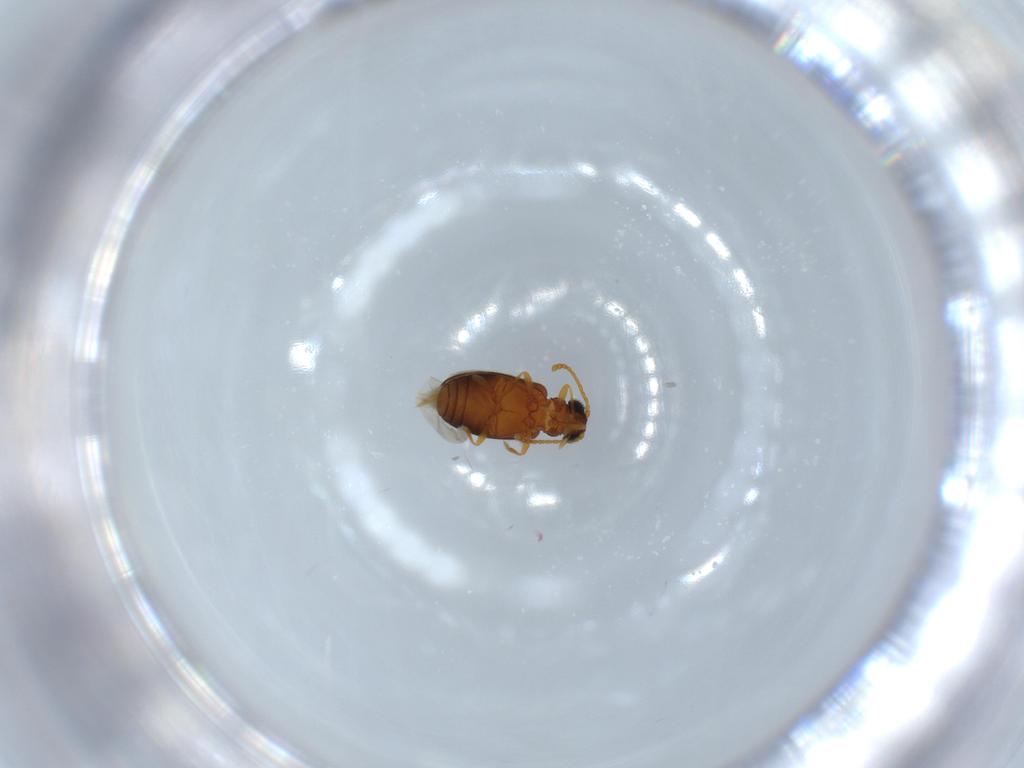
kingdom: Animalia
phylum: Arthropoda
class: Insecta
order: Coleoptera
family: Aderidae
